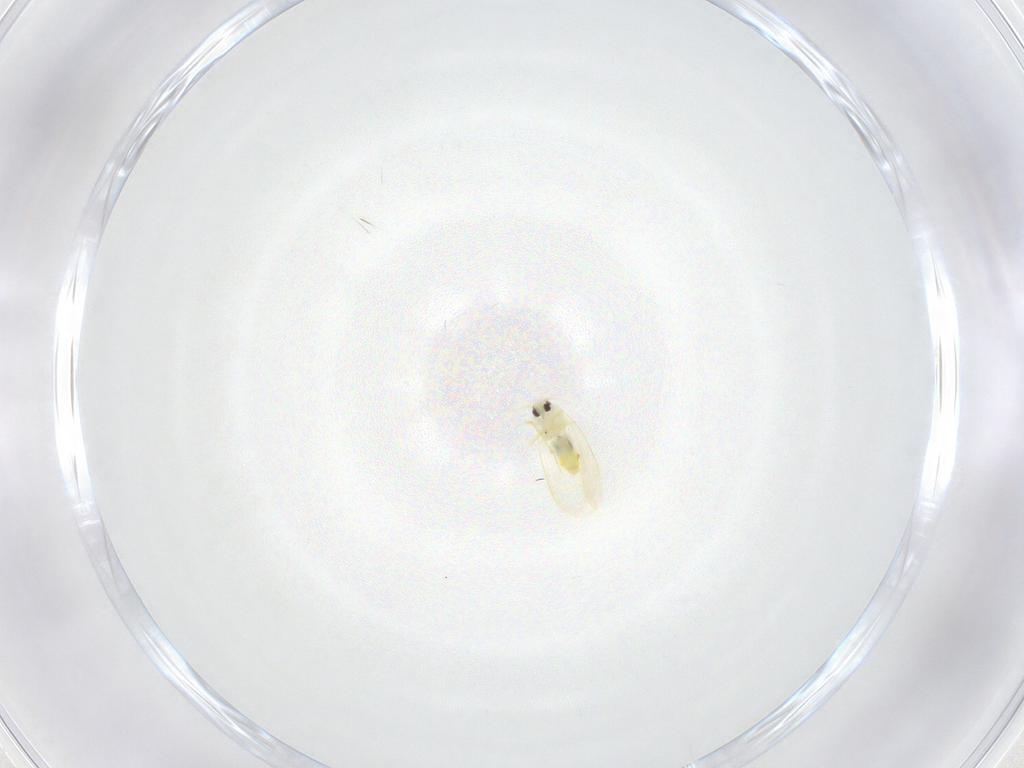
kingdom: Animalia
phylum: Arthropoda
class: Insecta
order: Hemiptera
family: Aleyrodidae
